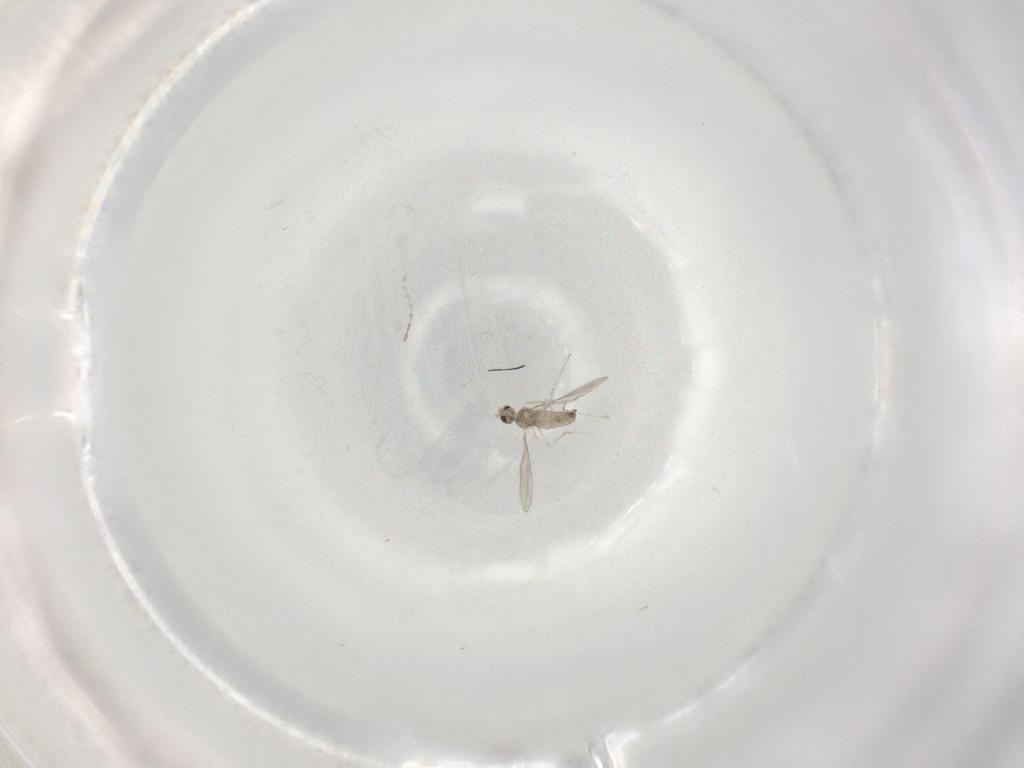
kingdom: Animalia
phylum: Arthropoda
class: Insecta
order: Diptera
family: Cecidomyiidae
